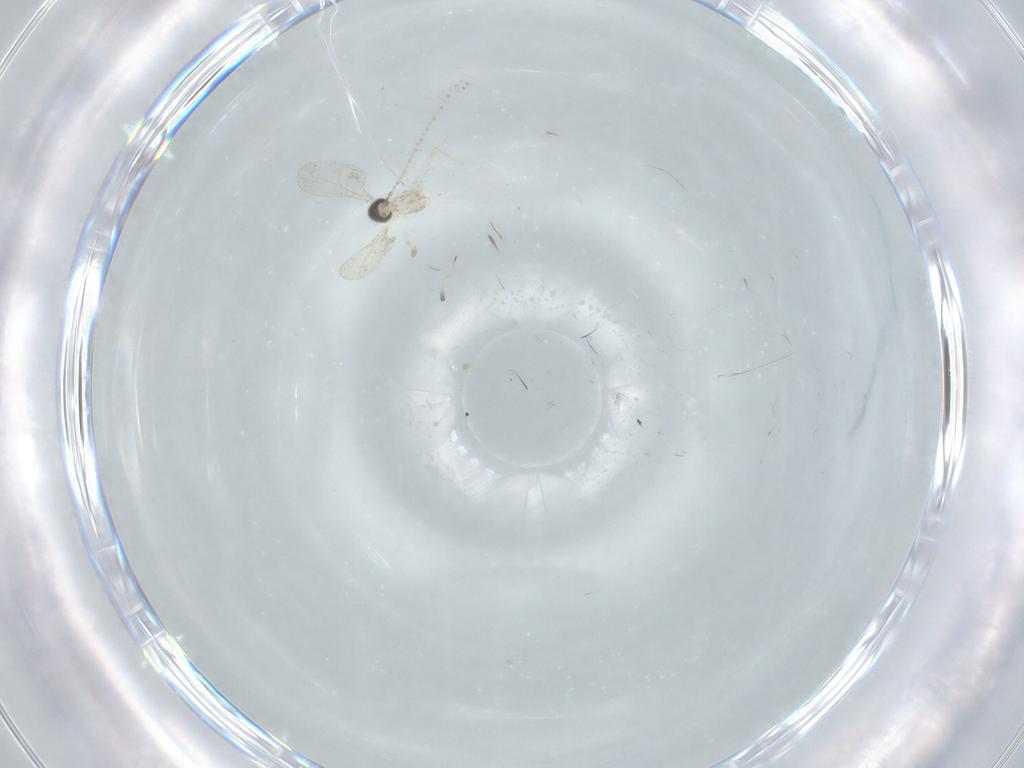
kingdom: Animalia
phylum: Arthropoda
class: Insecta
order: Diptera
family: Cecidomyiidae
